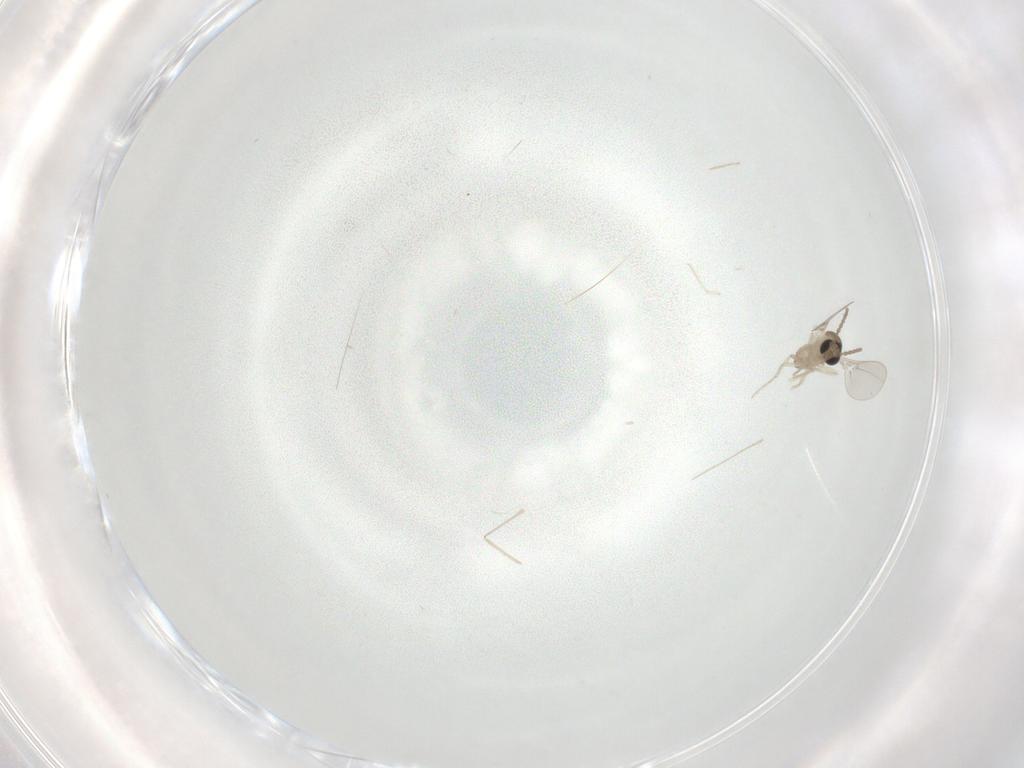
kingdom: Animalia
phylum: Arthropoda
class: Insecta
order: Diptera
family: Cecidomyiidae
